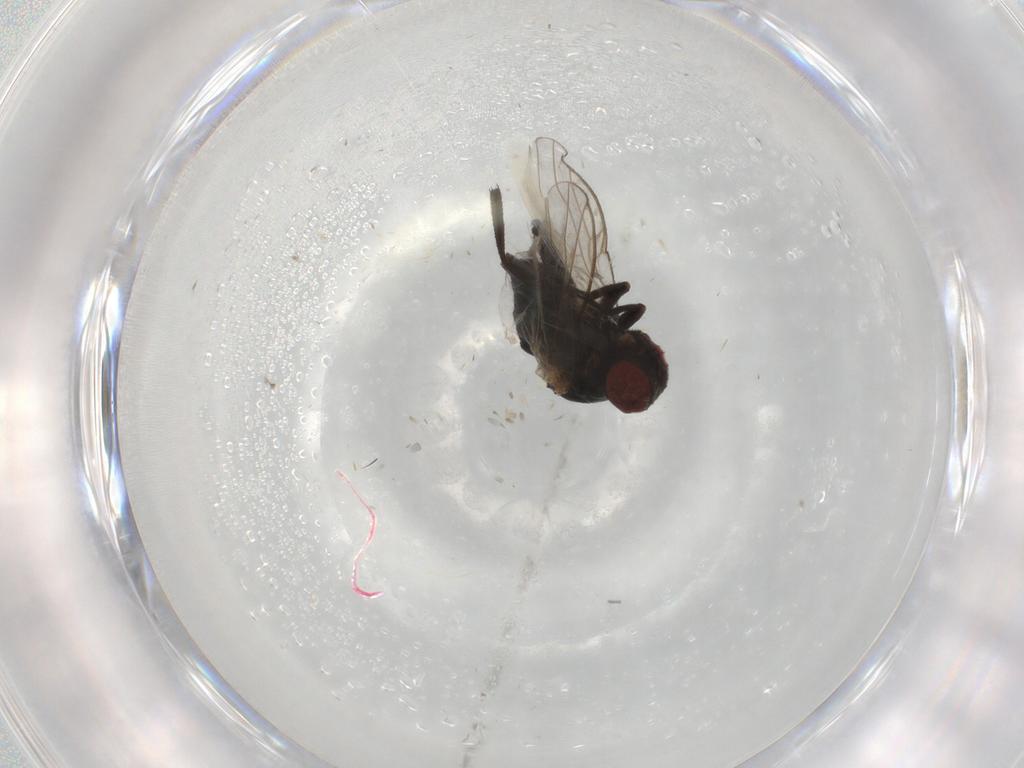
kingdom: Animalia
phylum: Arthropoda
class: Insecta
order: Diptera
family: Agromyzidae
